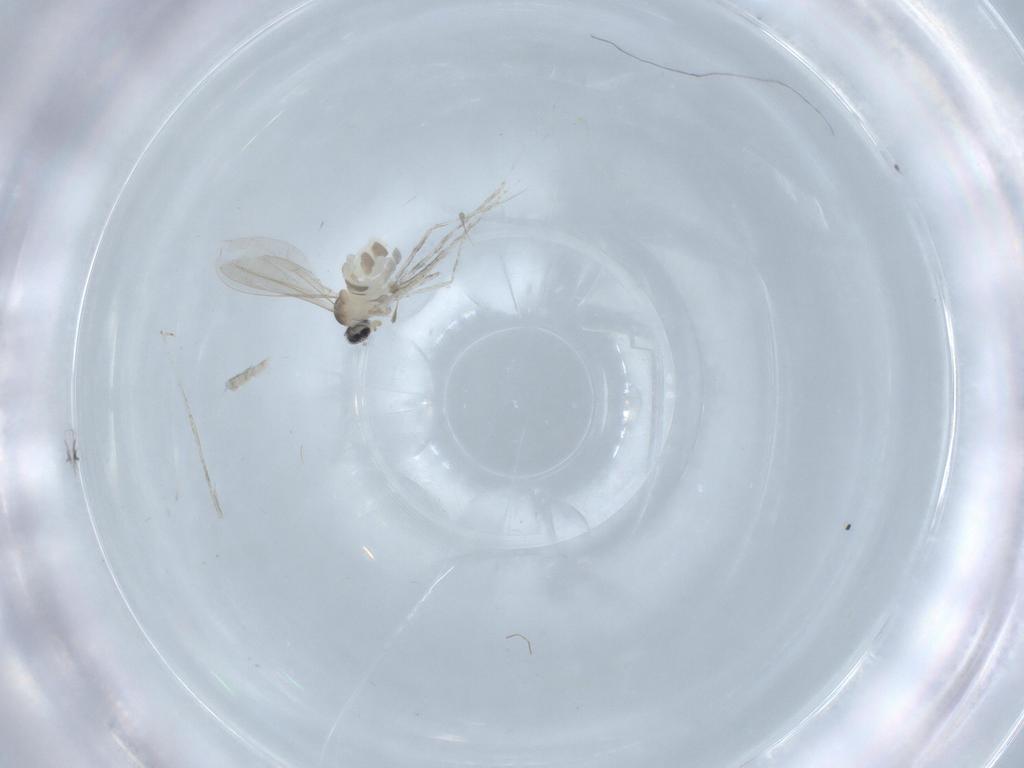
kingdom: Animalia
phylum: Arthropoda
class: Insecta
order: Diptera
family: Cecidomyiidae
